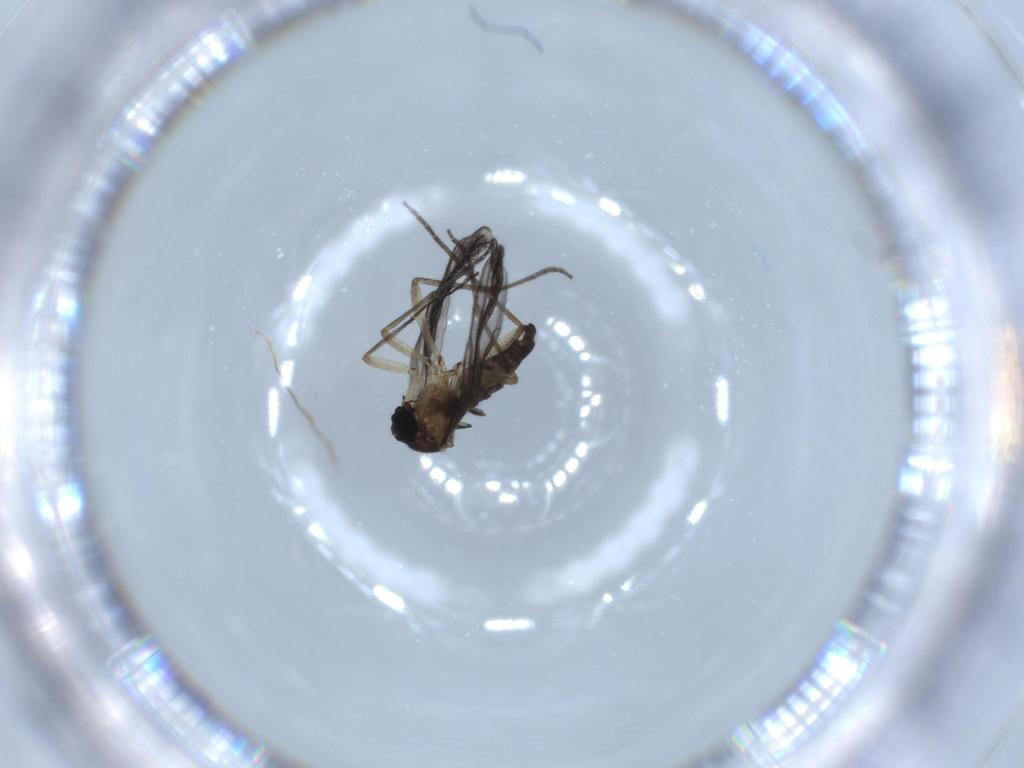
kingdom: Animalia
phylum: Arthropoda
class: Insecta
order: Diptera
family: Sciaridae
